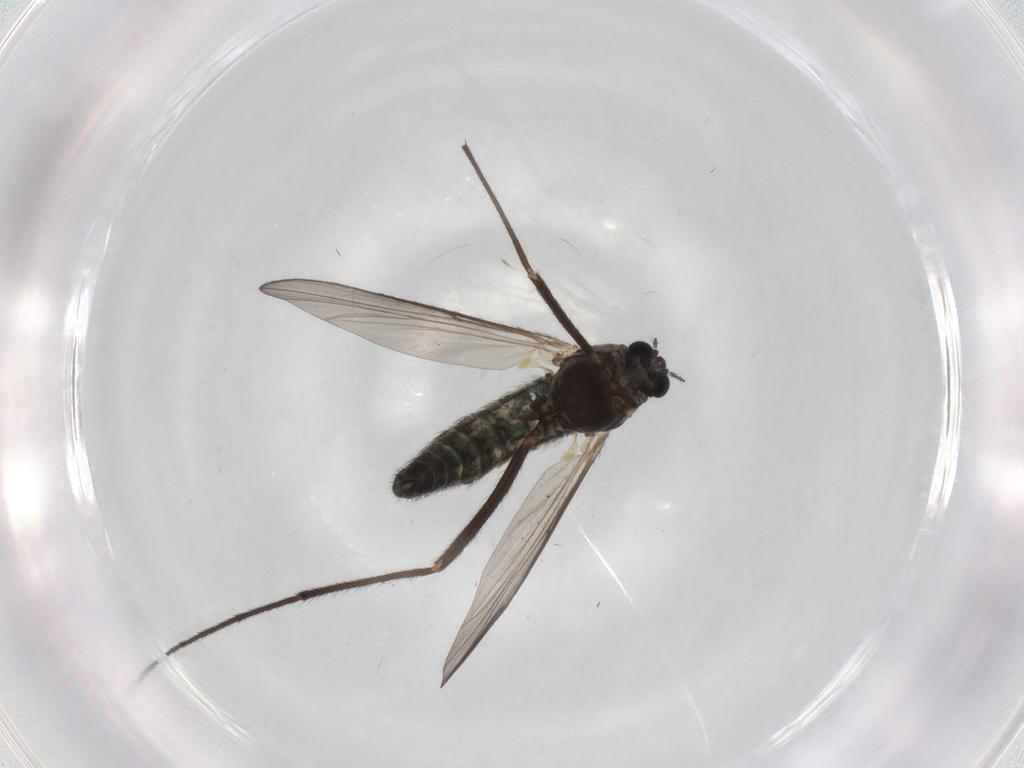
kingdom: Animalia
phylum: Arthropoda
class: Insecta
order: Diptera
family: Chironomidae
